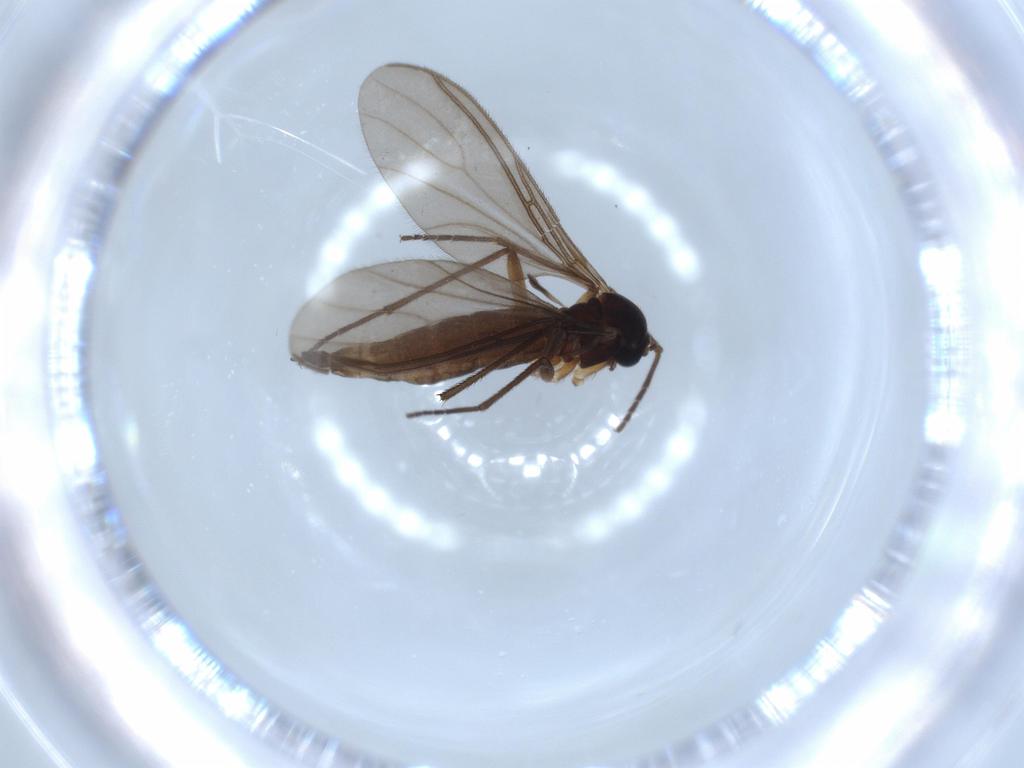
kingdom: Animalia
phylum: Arthropoda
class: Insecta
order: Diptera
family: Sciaridae
